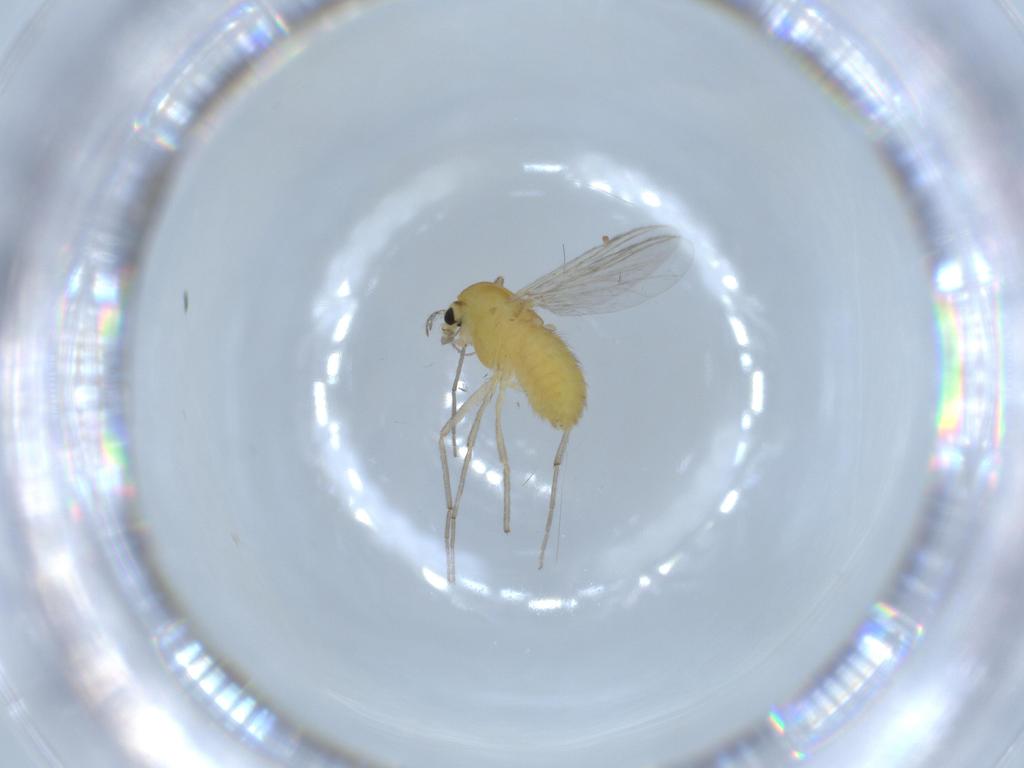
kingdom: Animalia
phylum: Arthropoda
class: Insecta
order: Diptera
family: Chironomidae
